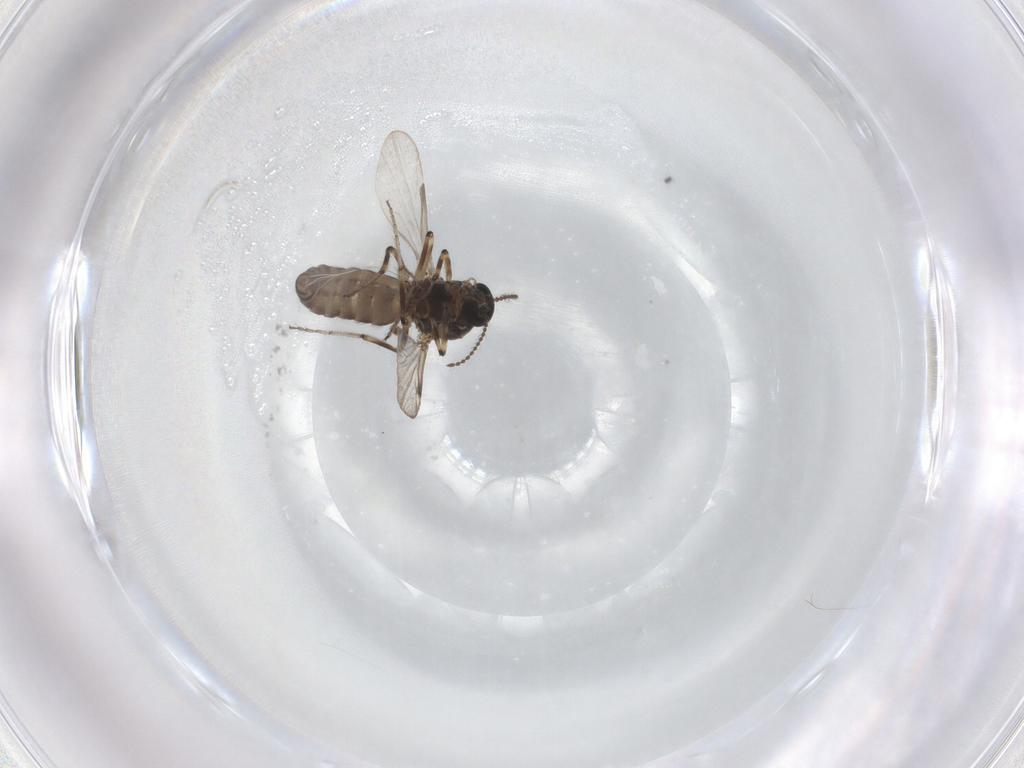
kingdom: Animalia
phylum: Arthropoda
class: Insecta
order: Diptera
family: Ceratopogonidae
